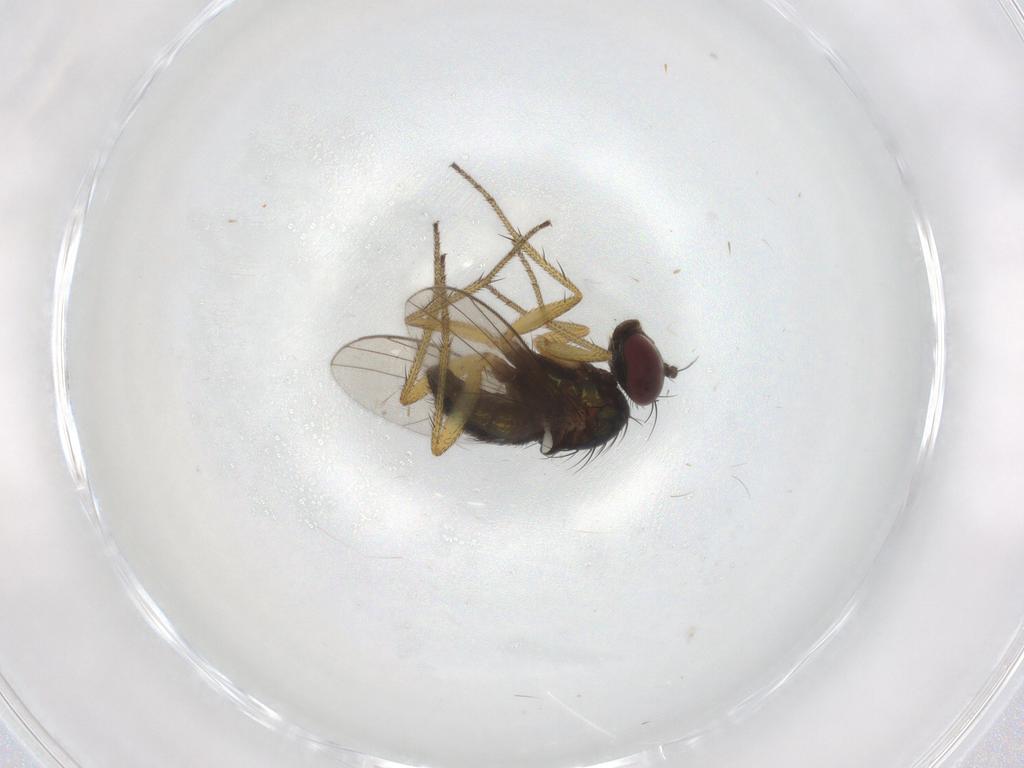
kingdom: Animalia
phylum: Arthropoda
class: Insecta
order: Diptera
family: Dolichopodidae
